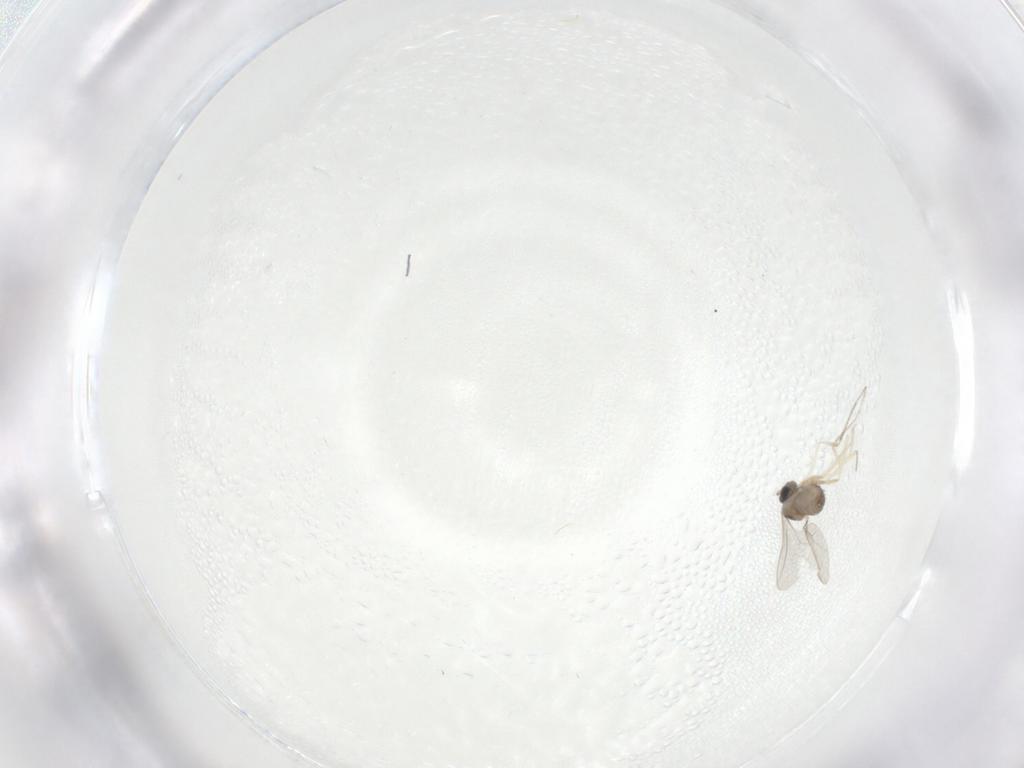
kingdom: Animalia
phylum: Arthropoda
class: Insecta
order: Diptera
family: Cecidomyiidae
